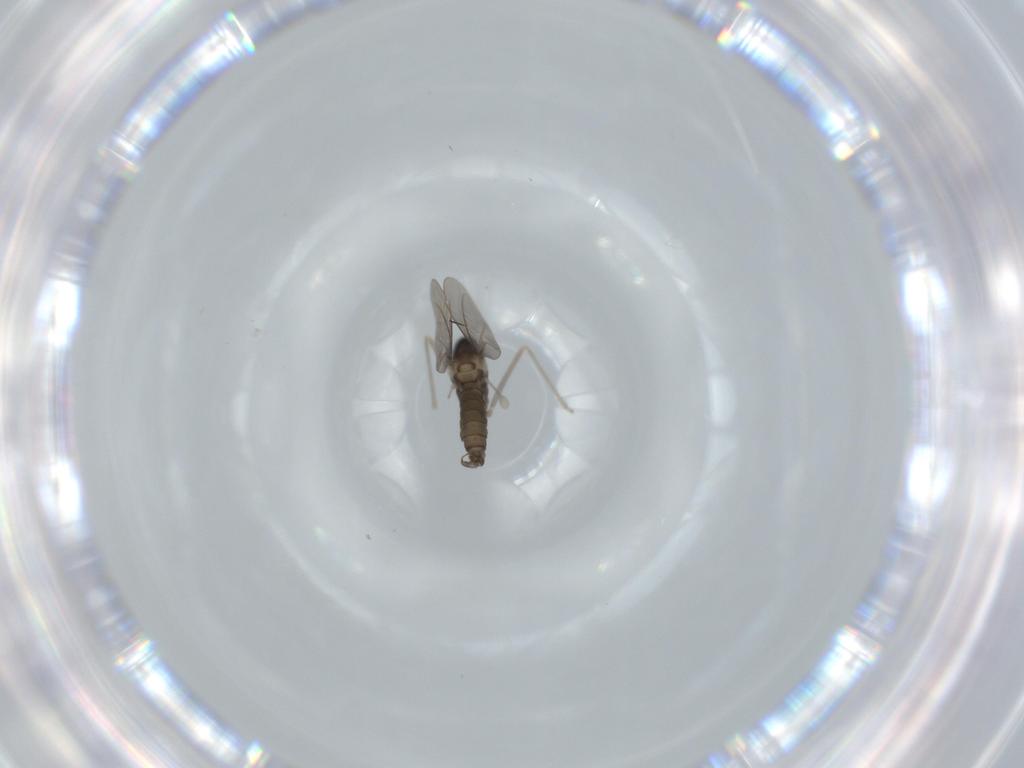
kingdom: Animalia
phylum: Arthropoda
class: Insecta
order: Diptera
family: Cecidomyiidae
